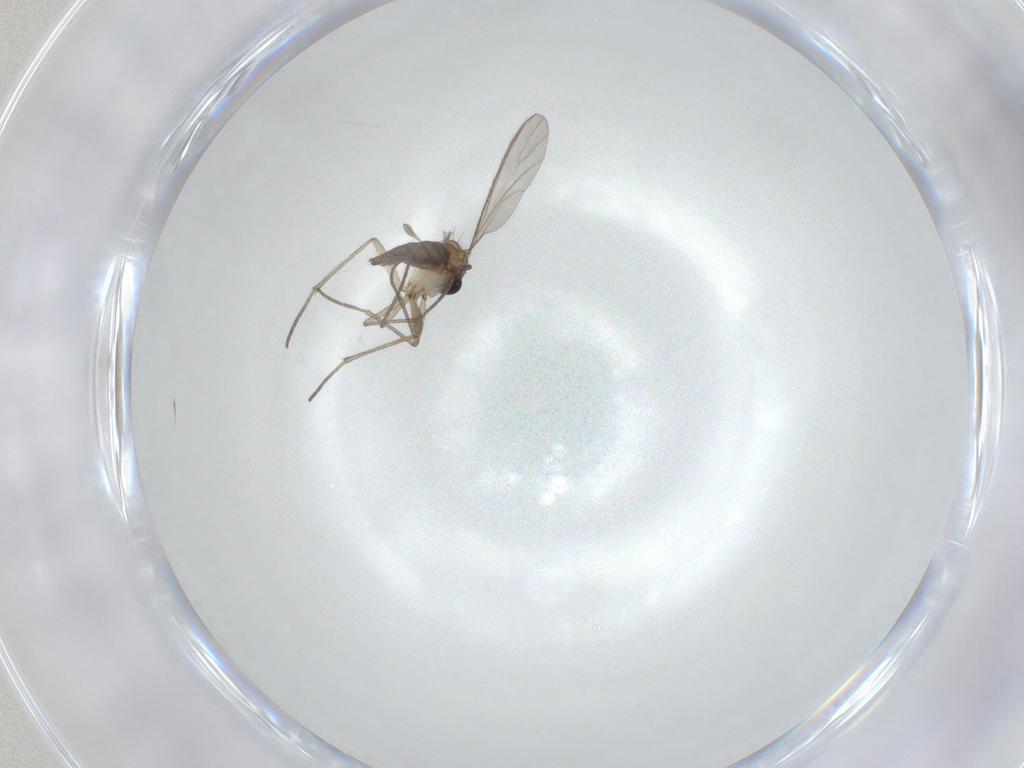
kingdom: Animalia
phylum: Arthropoda
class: Insecta
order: Diptera
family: Sciaridae
